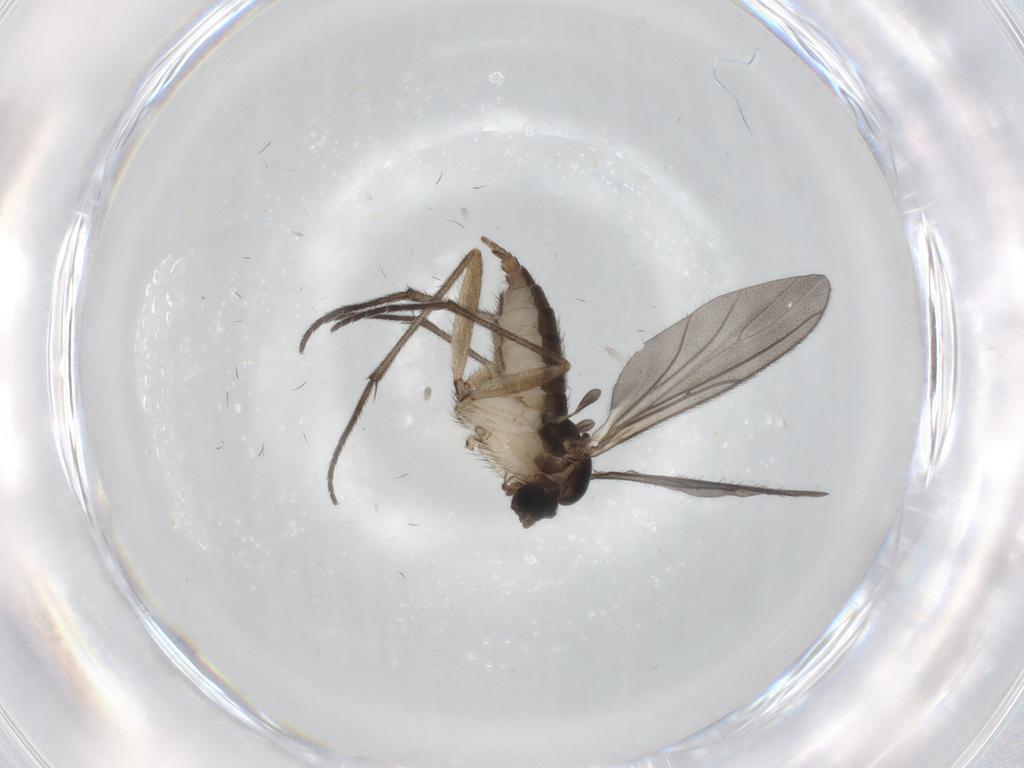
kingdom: Animalia
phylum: Arthropoda
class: Insecta
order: Diptera
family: Sciaridae
